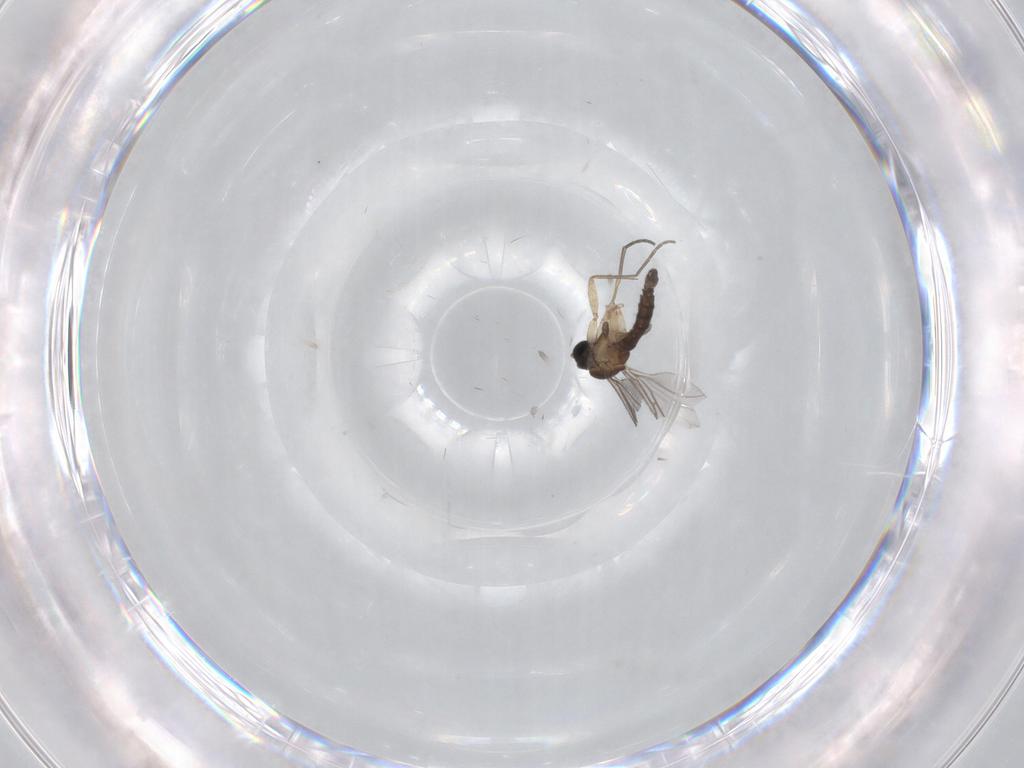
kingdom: Animalia
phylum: Arthropoda
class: Insecta
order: Diptera
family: Sciaridae
